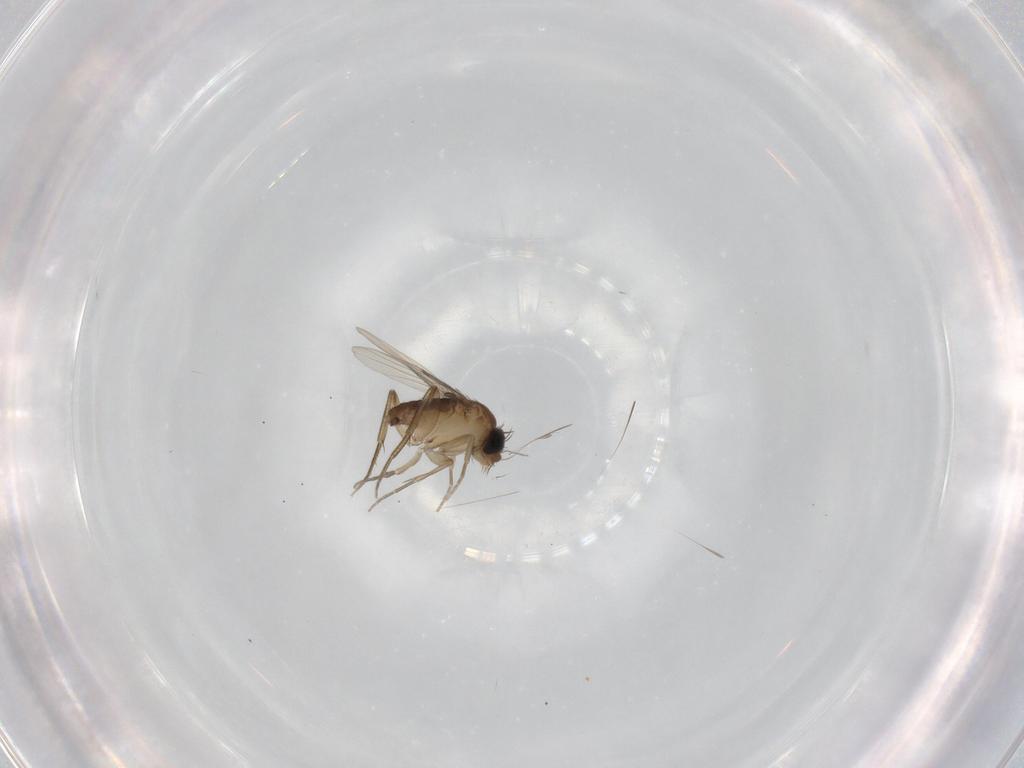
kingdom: Animalia
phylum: Arthropoda
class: Insecta
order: Diptera
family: Phoridae
